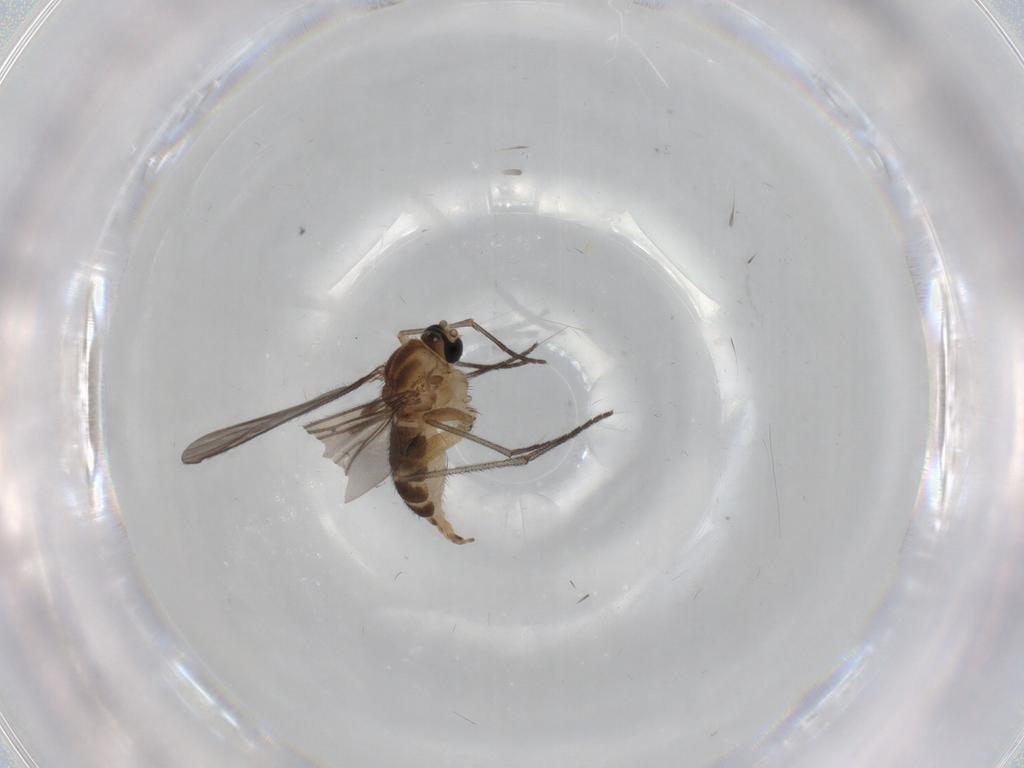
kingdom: Animalia
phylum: Arthropoda
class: Insecta
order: Diptera
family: Sciaridae
